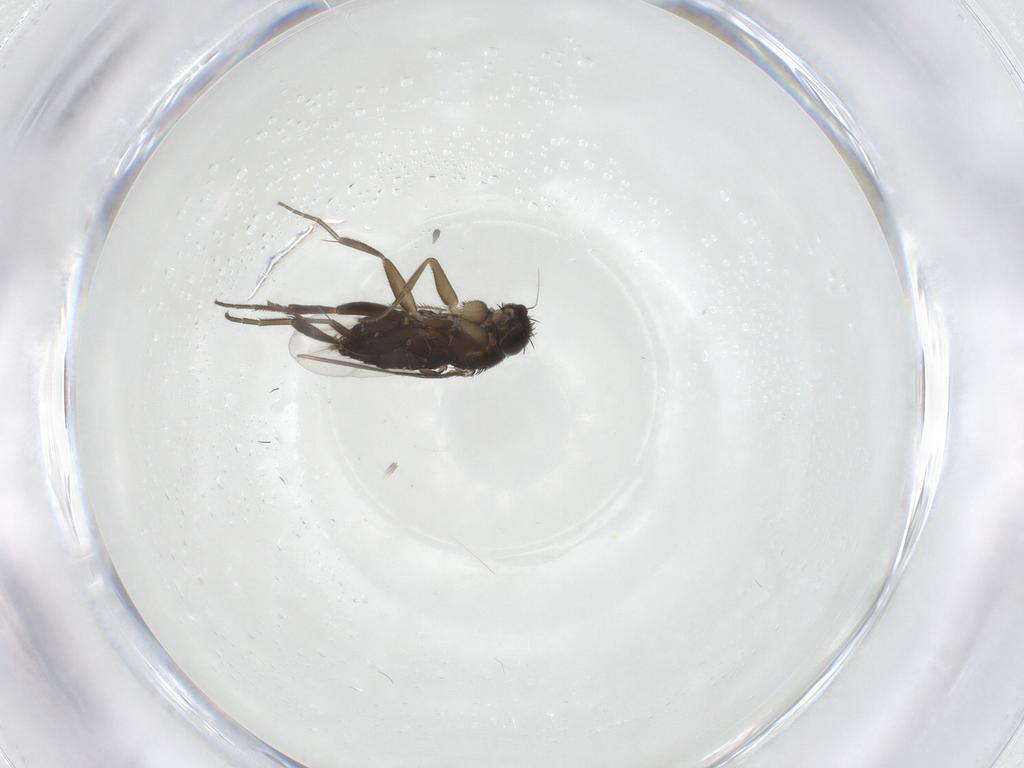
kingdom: Animalia
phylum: Arthropoda
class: Insecta
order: Diptera
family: Phoridae
